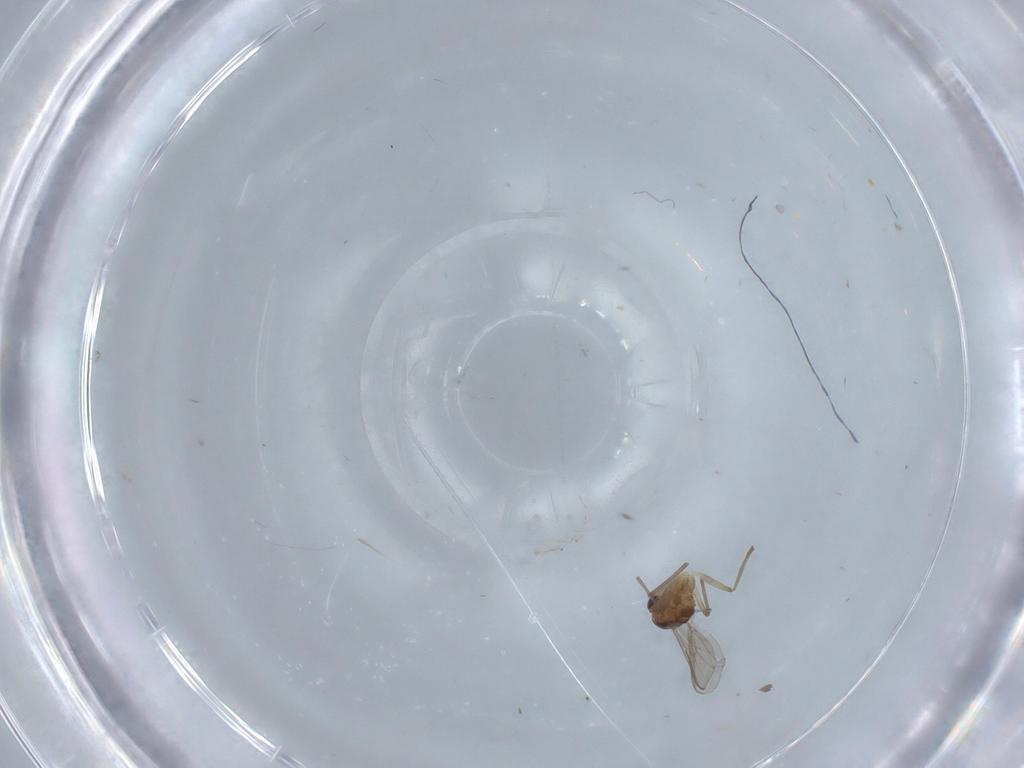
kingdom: Animalia
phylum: Arthropoda
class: Insecta
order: Diptera
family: Chironomidae
